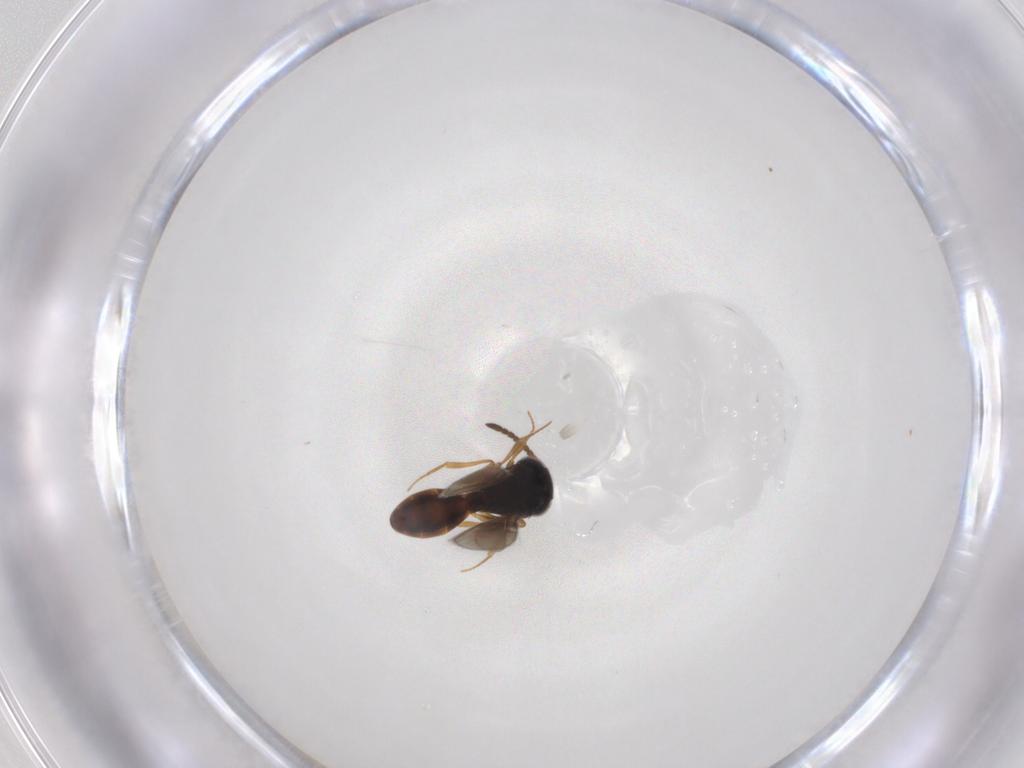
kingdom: Animalia
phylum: Arthropoda
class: Insecta
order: Hymenoptera
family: Scelionidae
